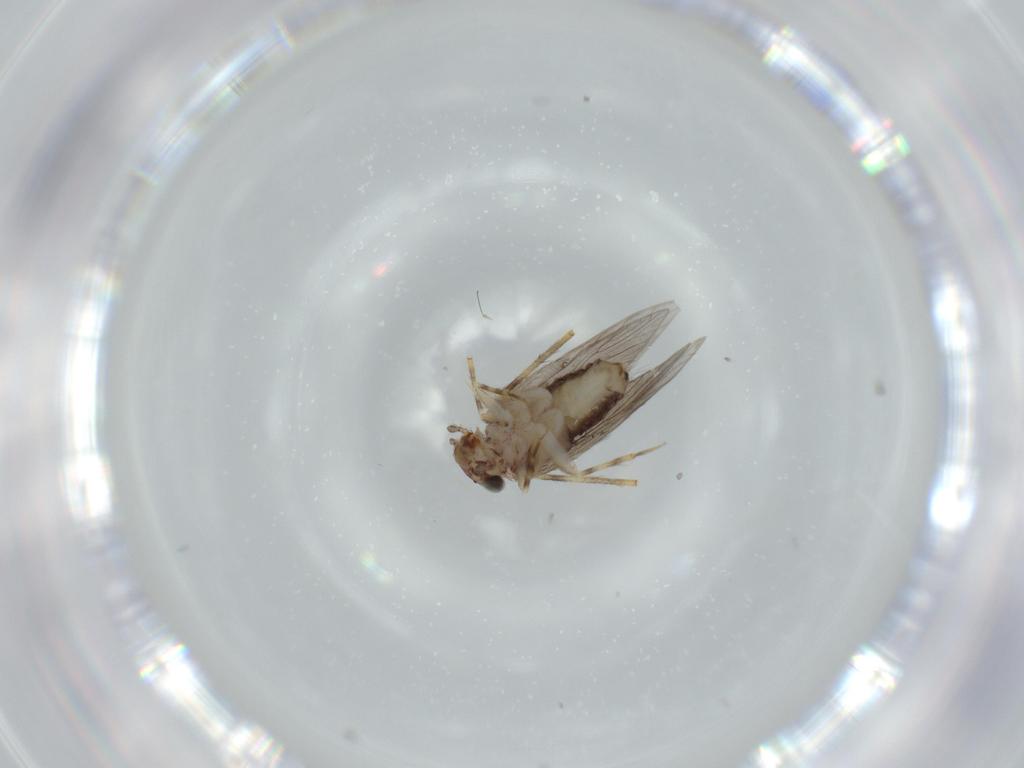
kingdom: Animalia
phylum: Arthropoda
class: Insecta
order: Psocodea
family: Lepidopsocidae
